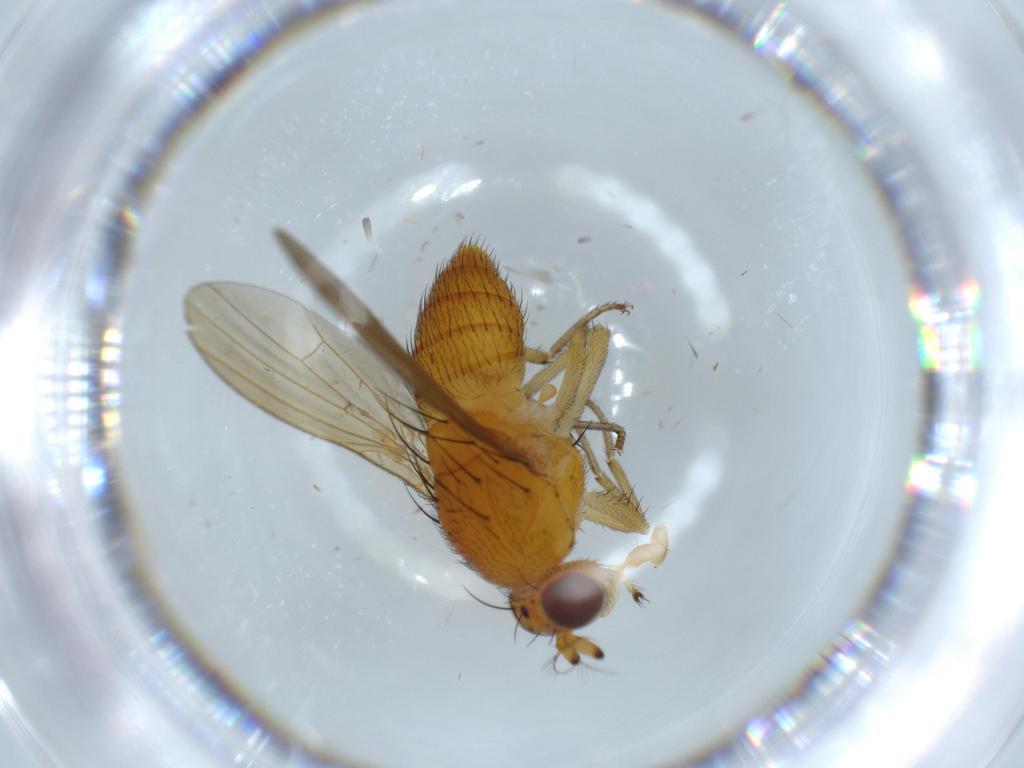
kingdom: Animalia
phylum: Arthropoda
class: Insecta
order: Diptera
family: Lauxaniidae
